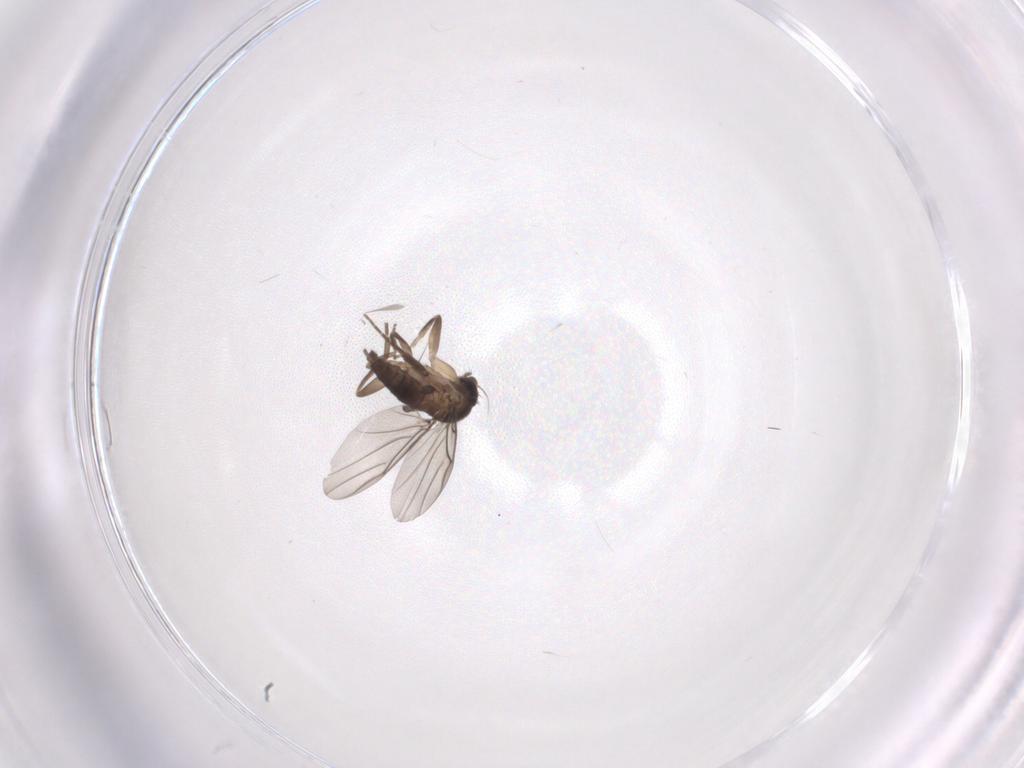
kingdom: Animalia
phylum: Arthropoda
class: Insecta
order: Diptera
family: Phoridae
